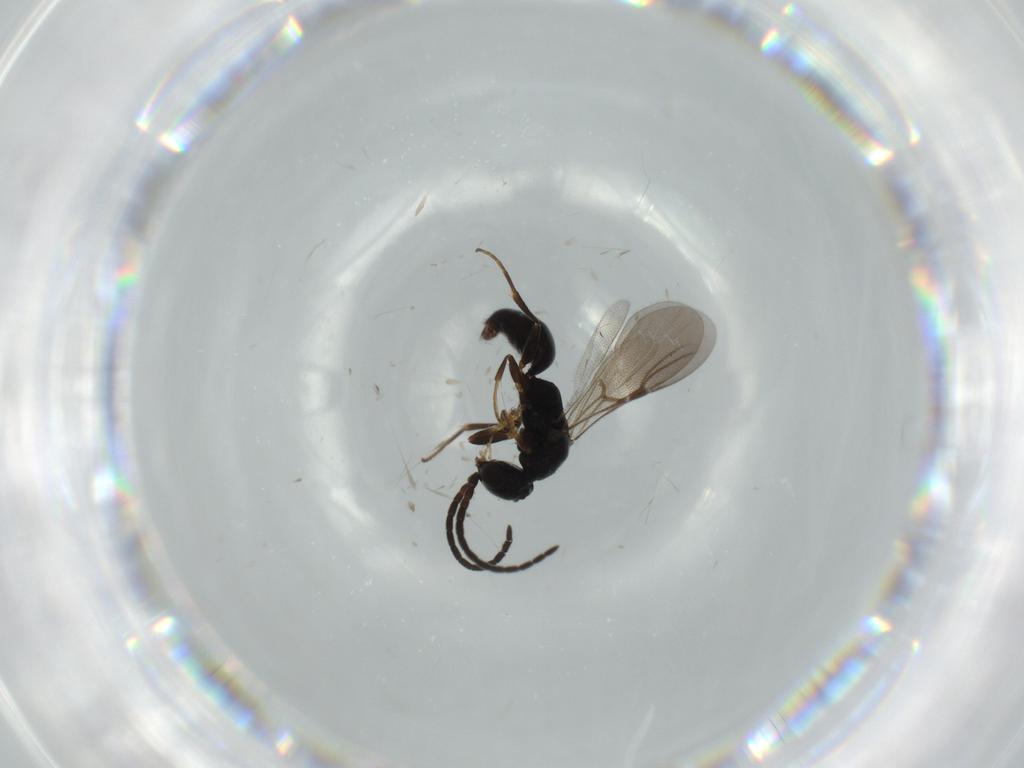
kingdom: Animalia
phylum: Arthropoda
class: Insecta
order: Hymenoptera
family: Bethylidae
